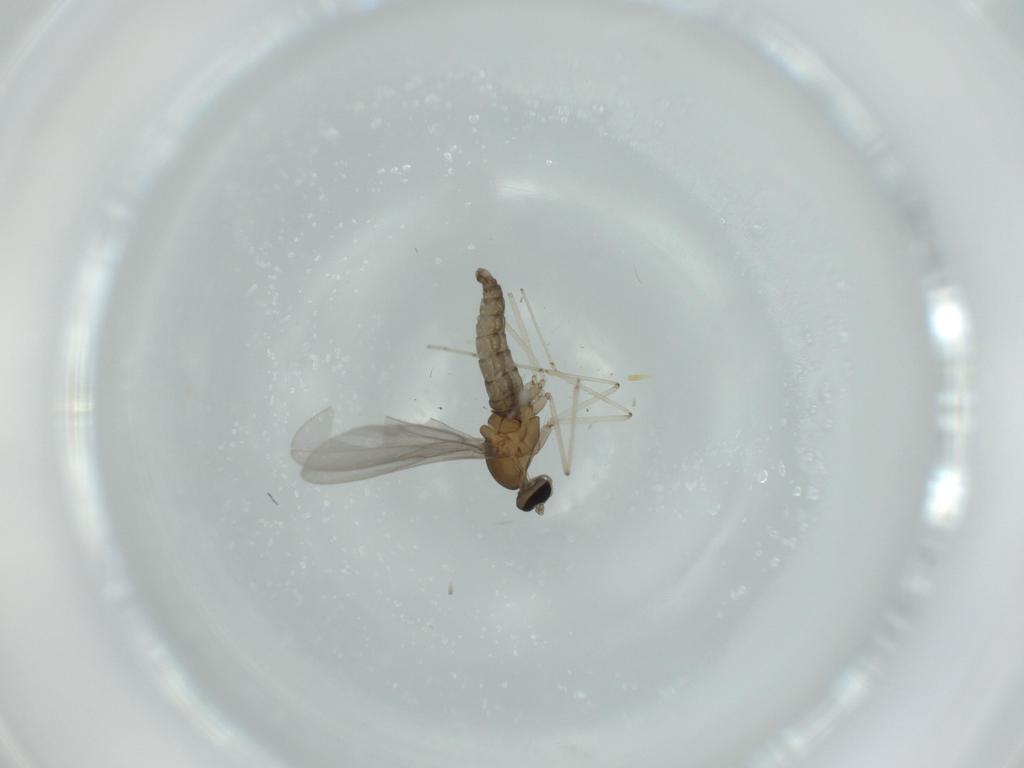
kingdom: Animalia
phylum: Arthropoda
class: Insecta
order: Diptera
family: Cecidomyiidae
